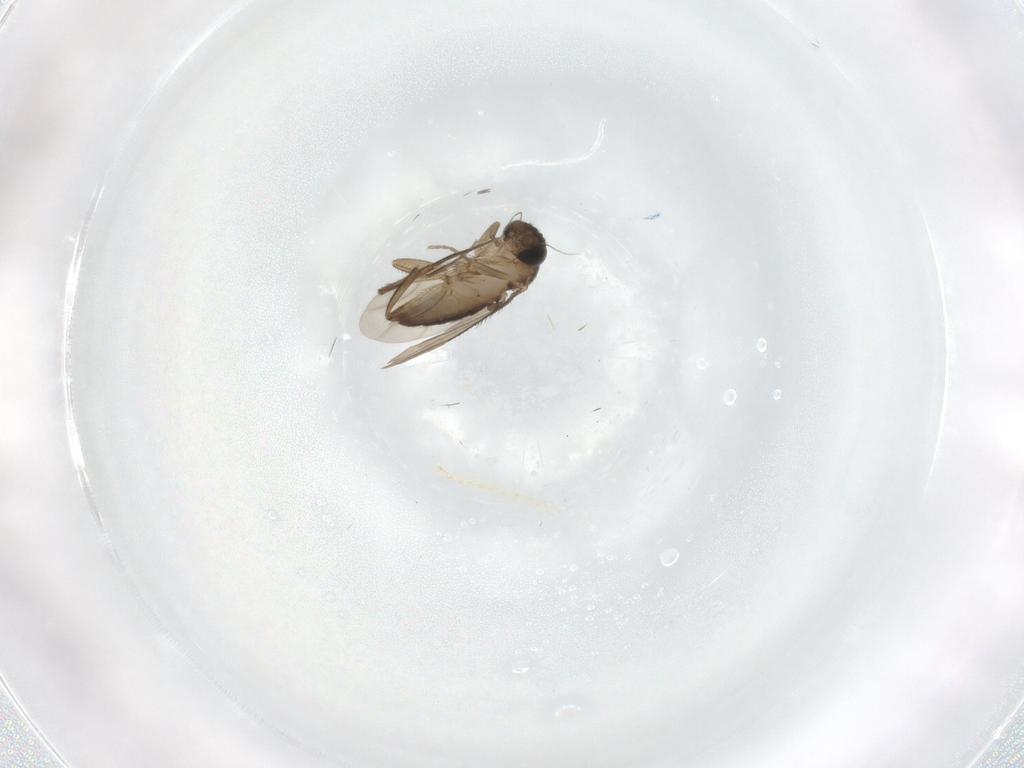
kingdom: Animalia
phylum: Arthropoda
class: Insecta
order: Diptera
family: Phoridae
